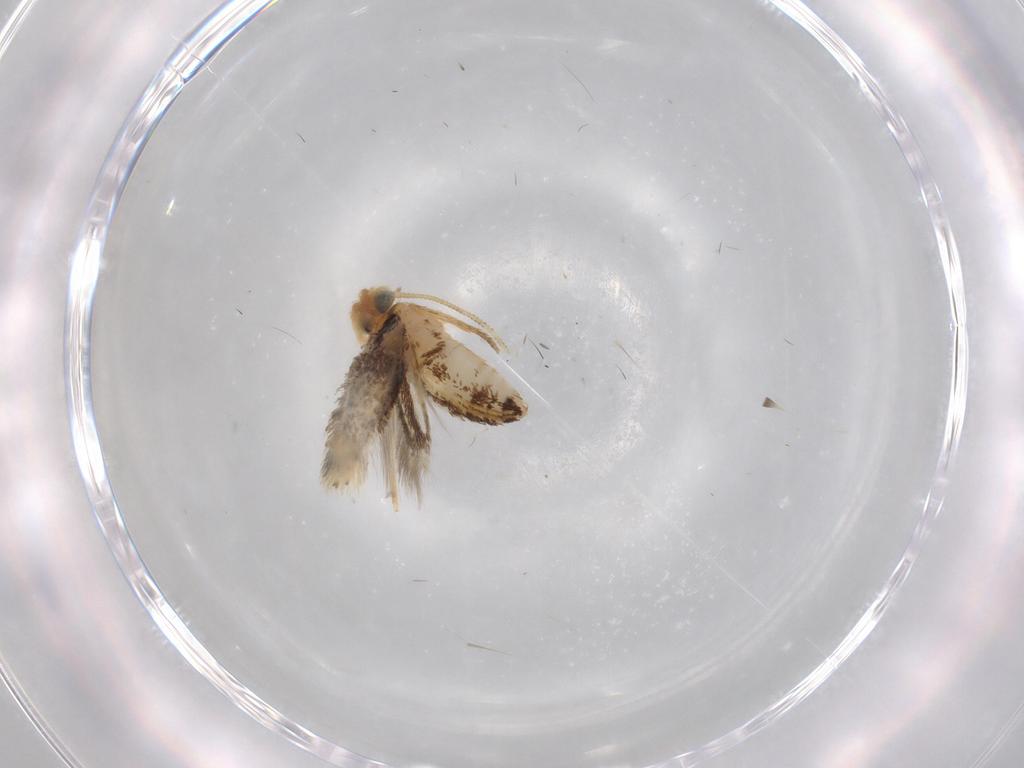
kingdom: Animalia
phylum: Arthropoda
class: Insecta
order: Lepidoptera
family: Nepticulidae
